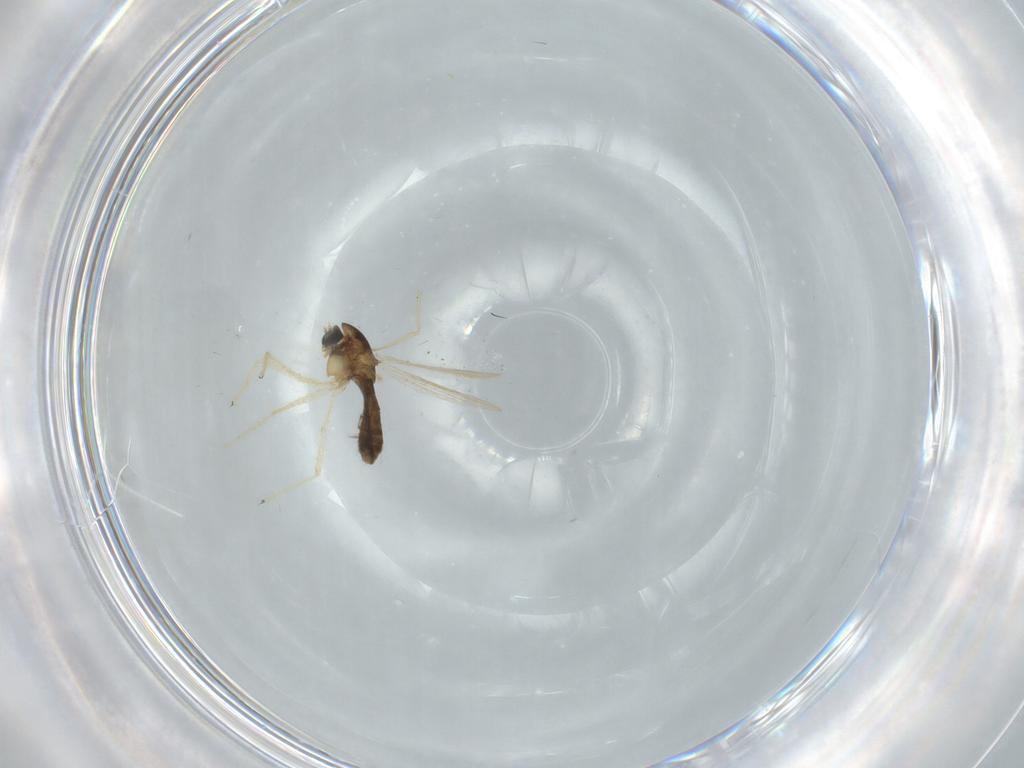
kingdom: Animalia
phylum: Arthropoda
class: Insecta
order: Diptera
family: Chironomidae
